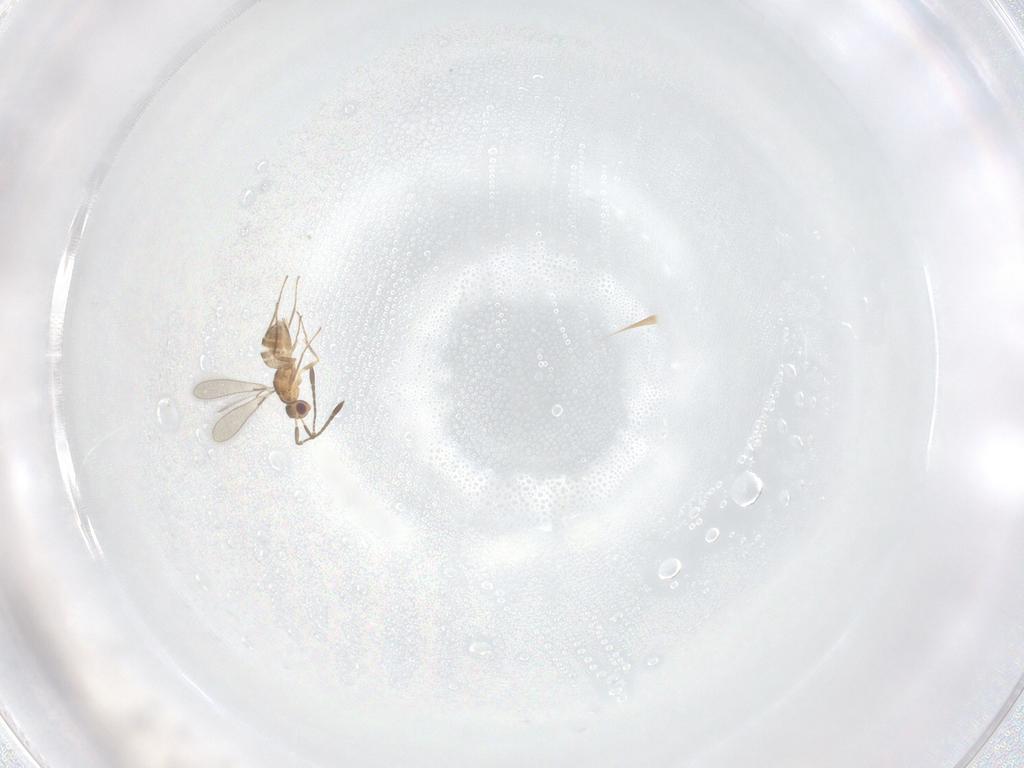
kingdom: Animalia
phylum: Arthropoda
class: Insecta
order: Hymenoptera
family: Mymaridae
